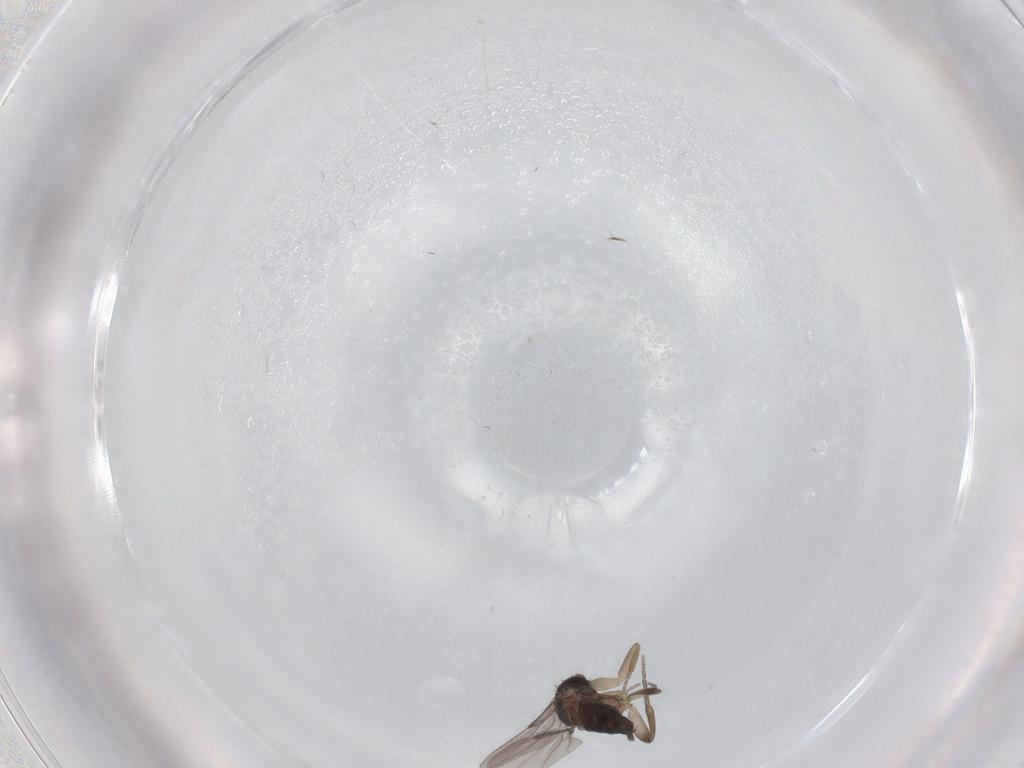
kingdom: Animalia
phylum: Arthropoda
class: Insecta
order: Diptera
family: Phoridae
